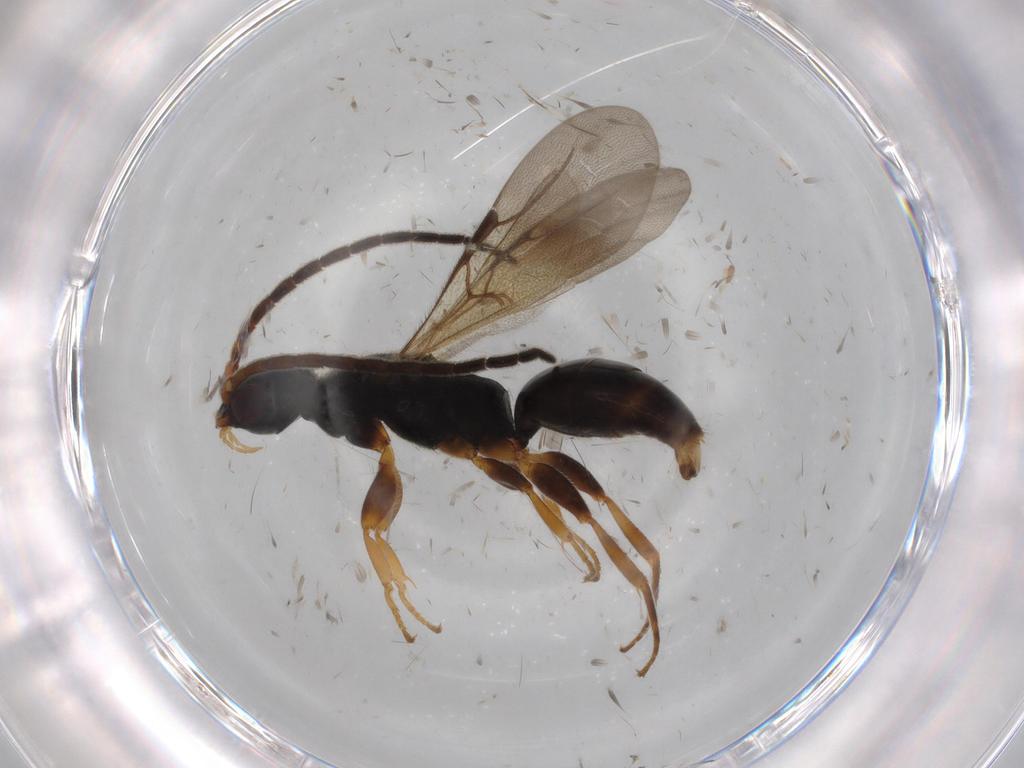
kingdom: Animalia
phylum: Arthropoda
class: Insecta
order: Hymenoptera
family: Bethylidae
